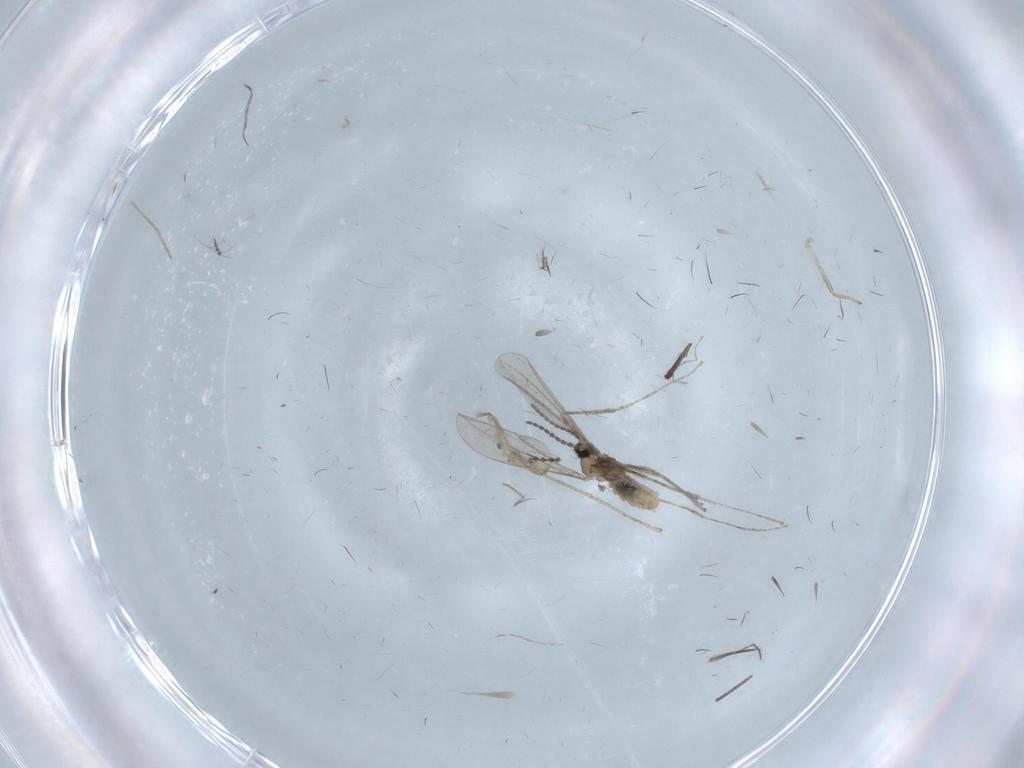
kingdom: Animalia
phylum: Arthropoda
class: Insecta
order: Diptera
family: Ceratopogonidae
